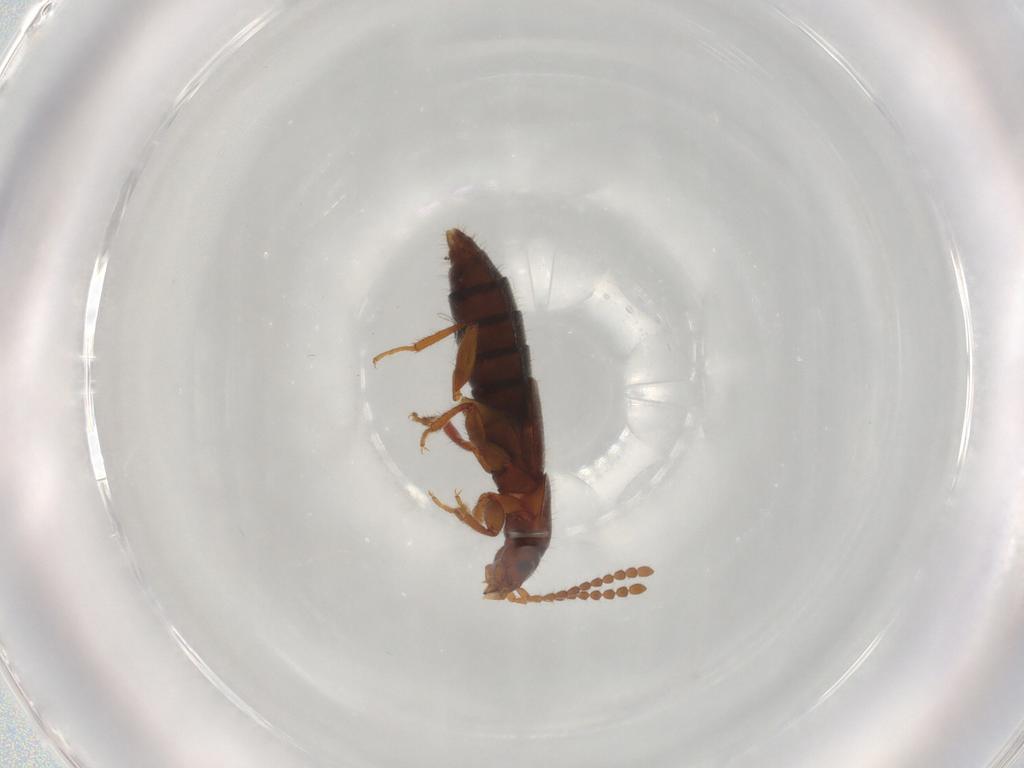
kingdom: Animalia
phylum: Arthropoda
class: Insecta
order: Coleoptera
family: Staphylinidae
